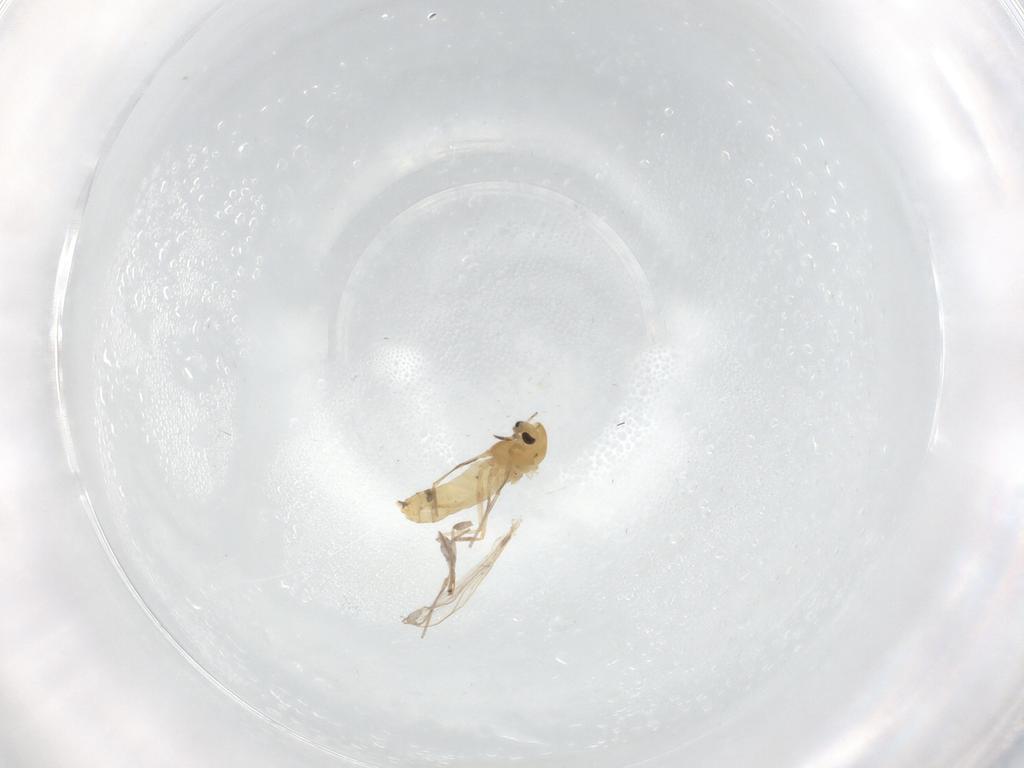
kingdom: Animalia
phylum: Arthropoda
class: Insecta
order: Diptera
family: Chironomidae
